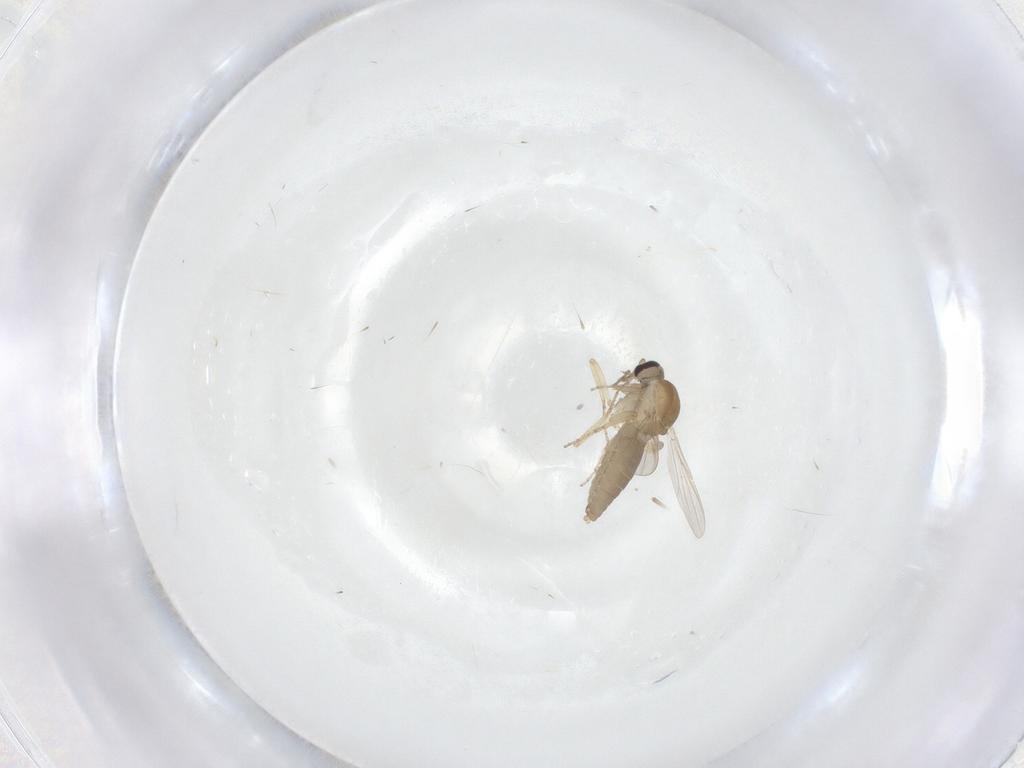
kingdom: Animalia
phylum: Arthropoda
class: Insecta
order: Diptera
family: Ceratopogonidae
